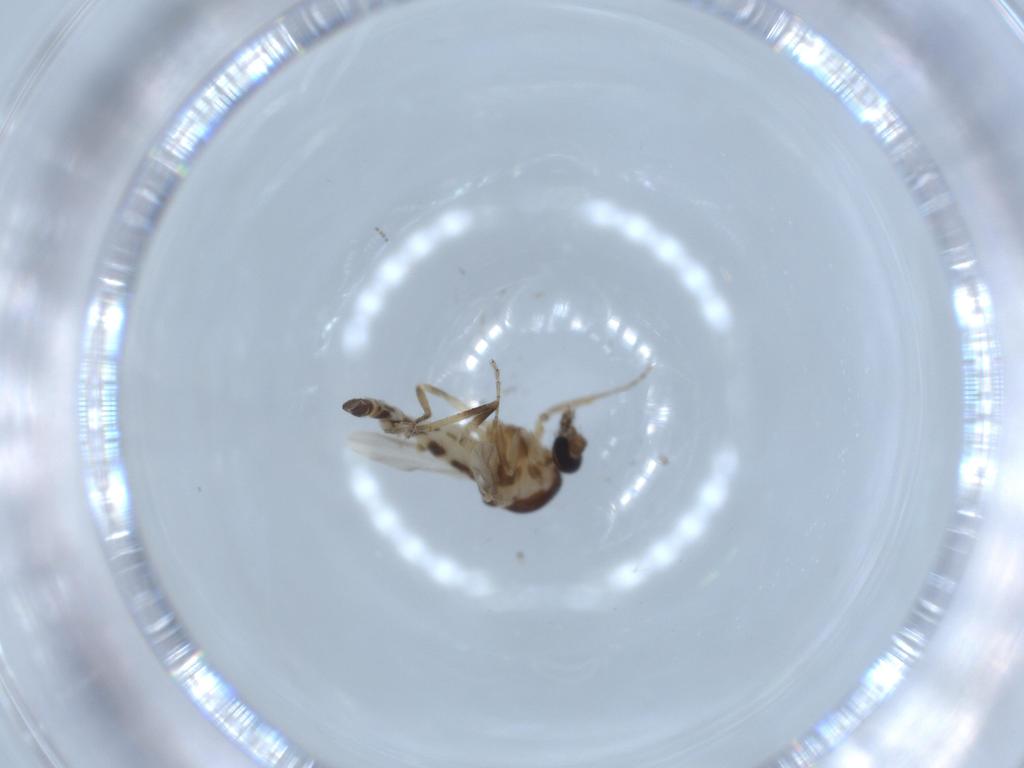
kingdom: Animalia
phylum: Arthropoda
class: Insecta
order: Diptera
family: Sciaridae
